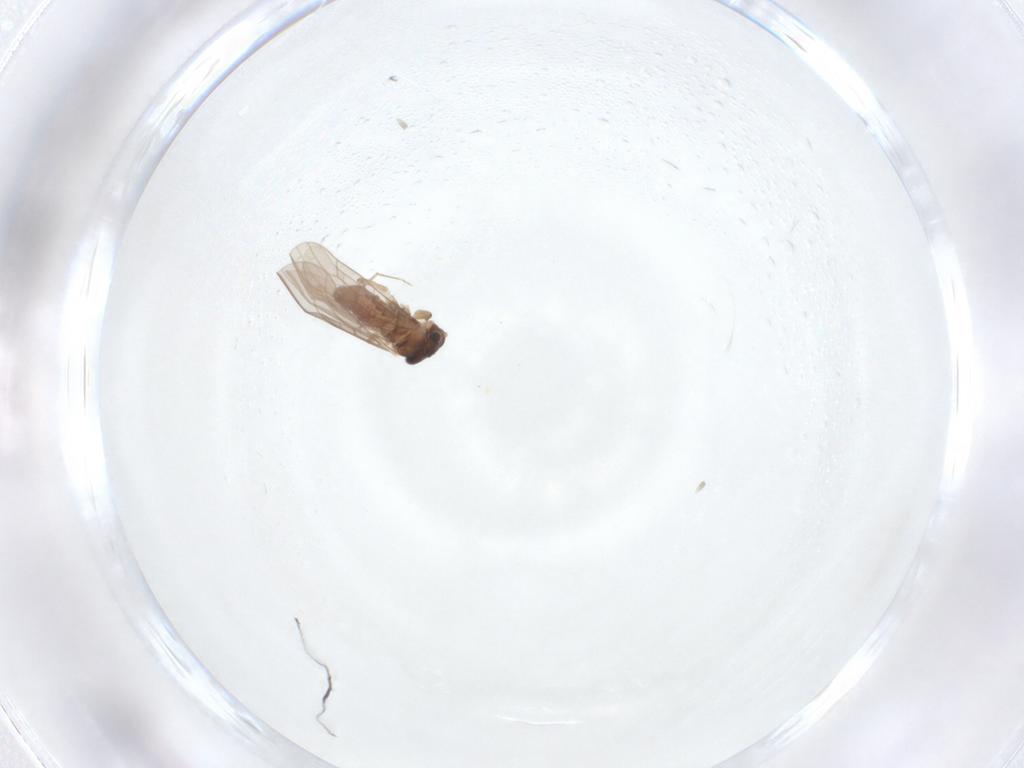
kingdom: Animalia
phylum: Arthropoda
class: Insecta
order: Psocodea
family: Lepidopsocidae
